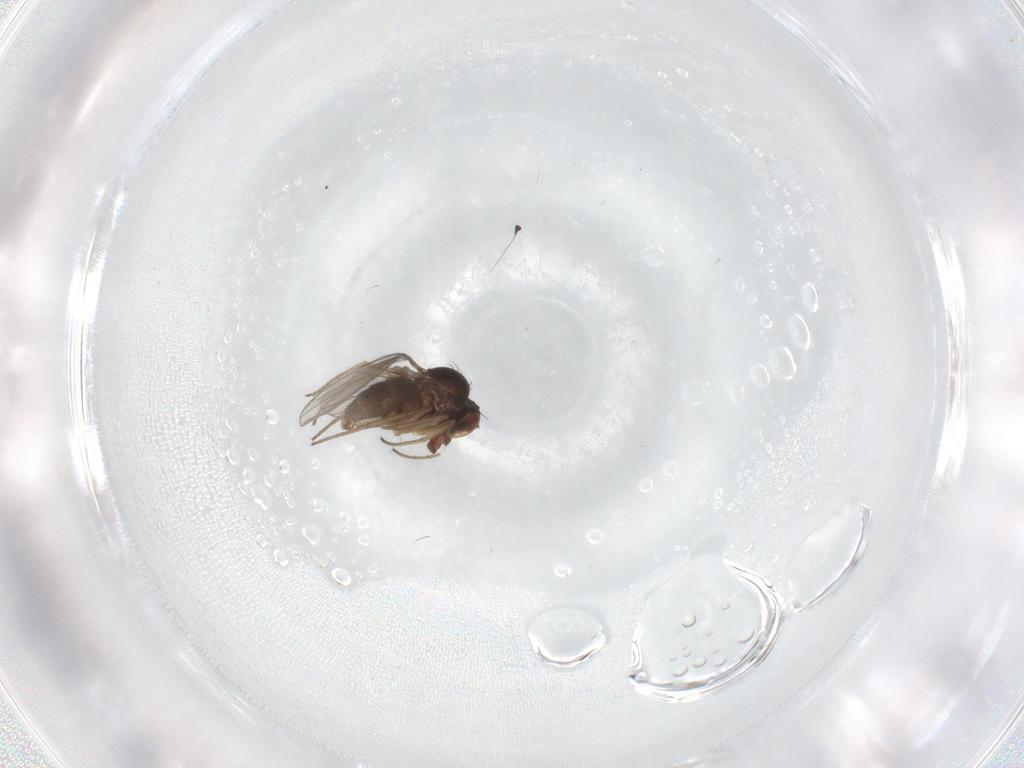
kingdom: Animalia
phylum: Arthropoda
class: Insecta
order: Diptera
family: Dolichopodidae
